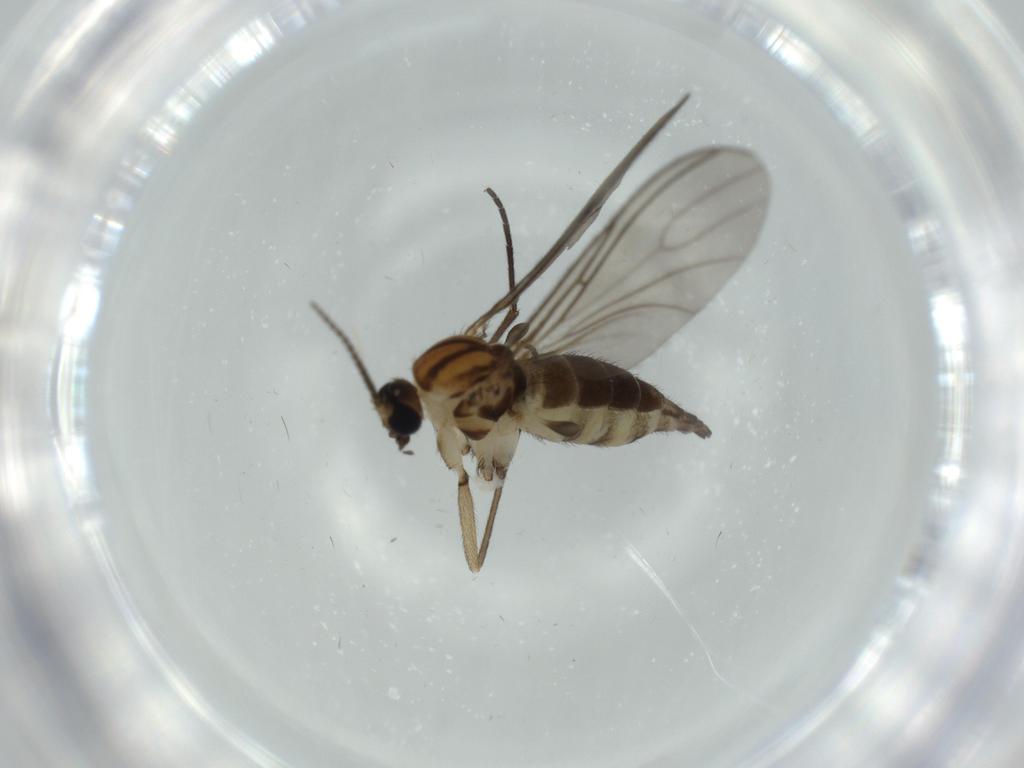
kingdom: Animalia
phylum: Arthropoda
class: Insecta
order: Diptera
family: Sciaridae
